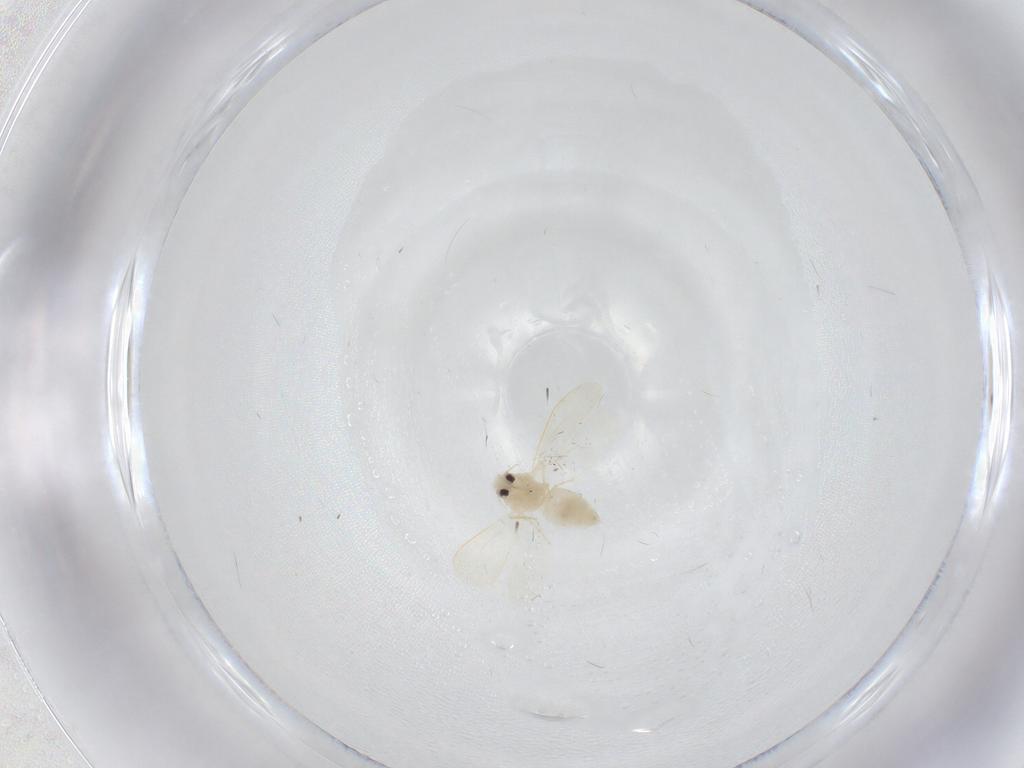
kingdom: Animalia
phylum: Arthropoda
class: Insecta
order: Hemiptera
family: Aleyrodidae
